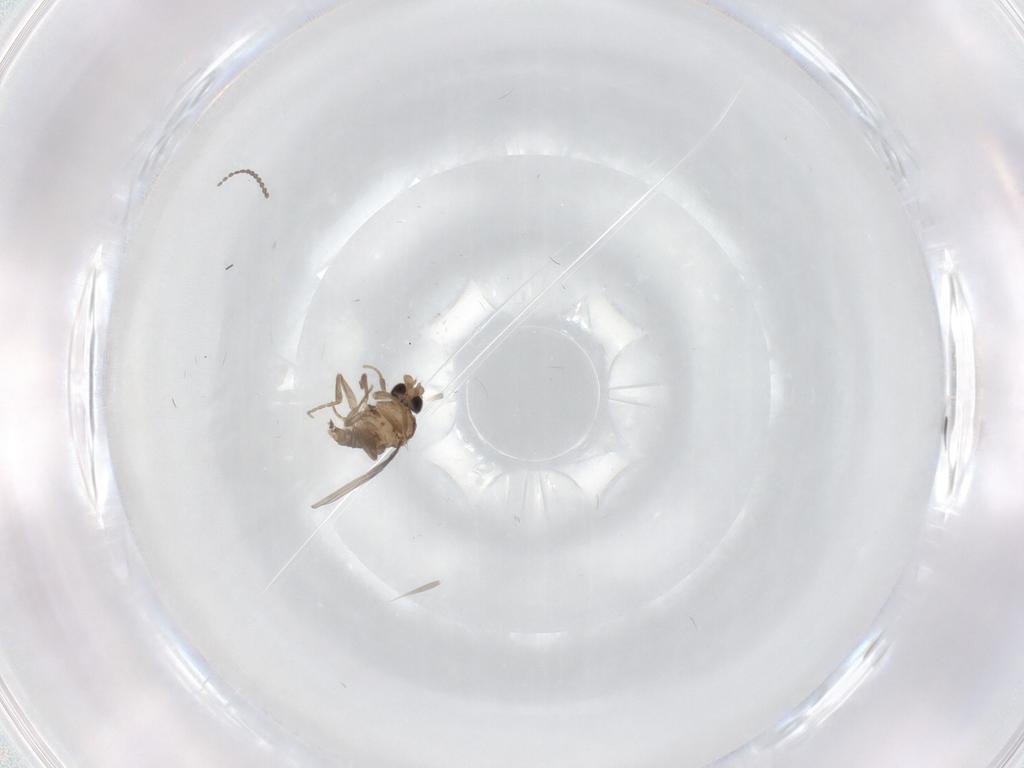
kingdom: Animalia
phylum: Arthropoda
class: Insecta
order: Diptera
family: Cecidomyiidae
